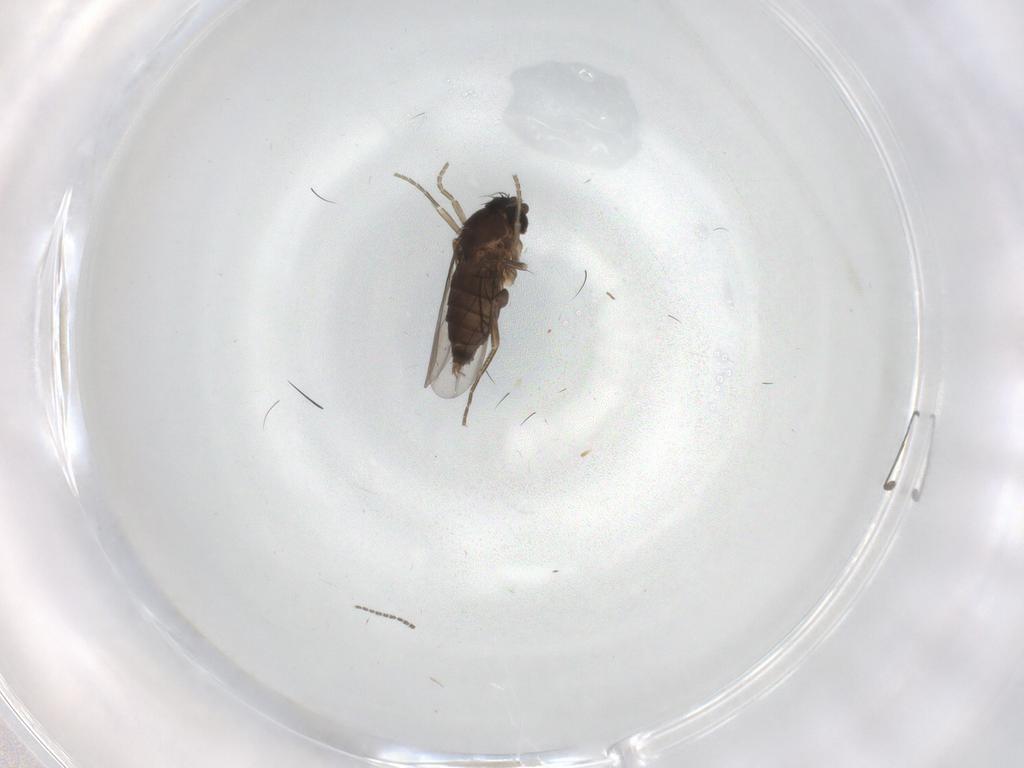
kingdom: Animalia
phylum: Arthropoda
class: Insecta
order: Diptera
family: Phoridae
